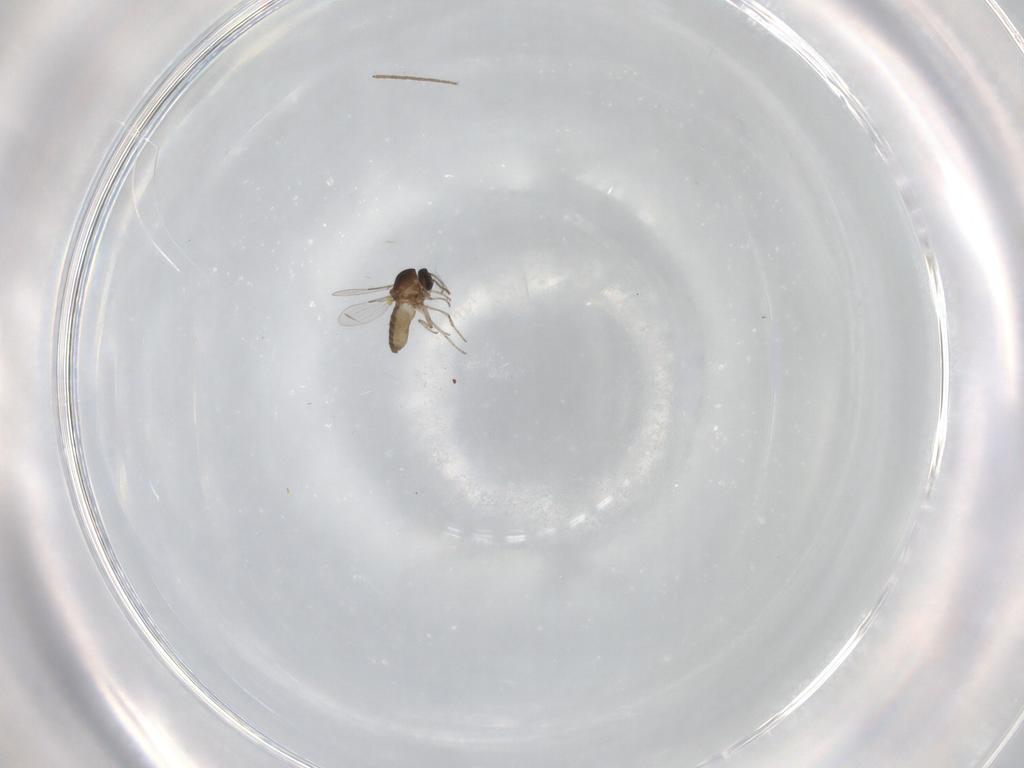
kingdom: Animalia
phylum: Arthropoda
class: Insecta
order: Diptera
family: Ceratopogonidae
